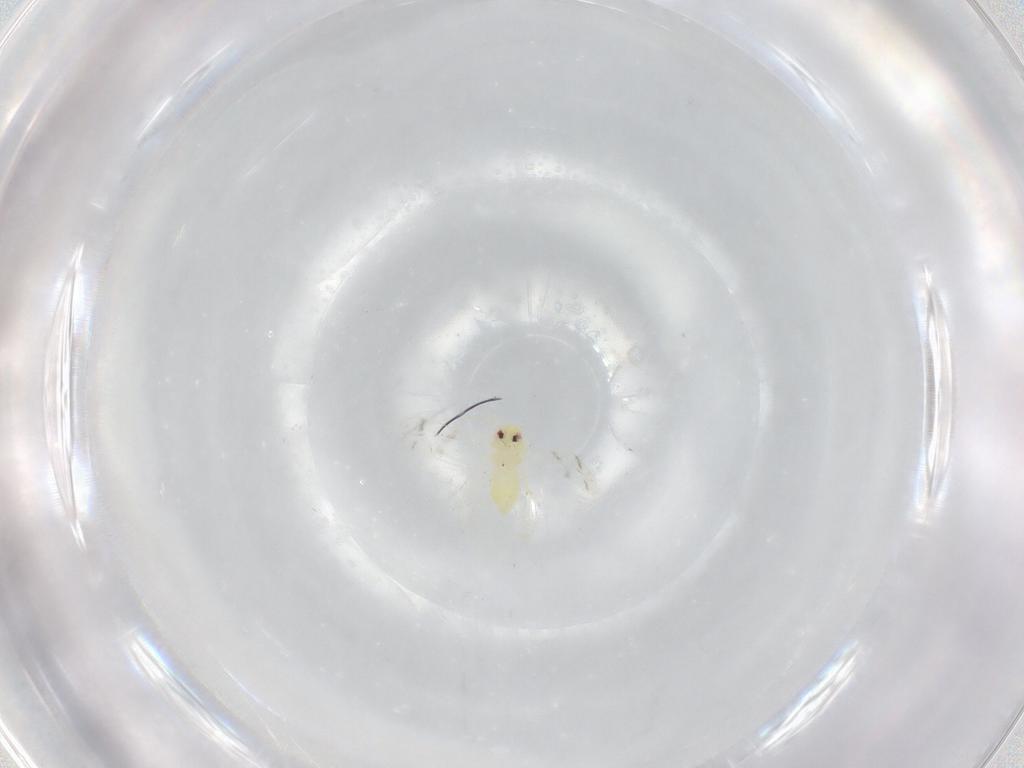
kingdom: Animalia
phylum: Arthropoda
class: Insecta
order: Hemiptera
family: Aleyrodidae
